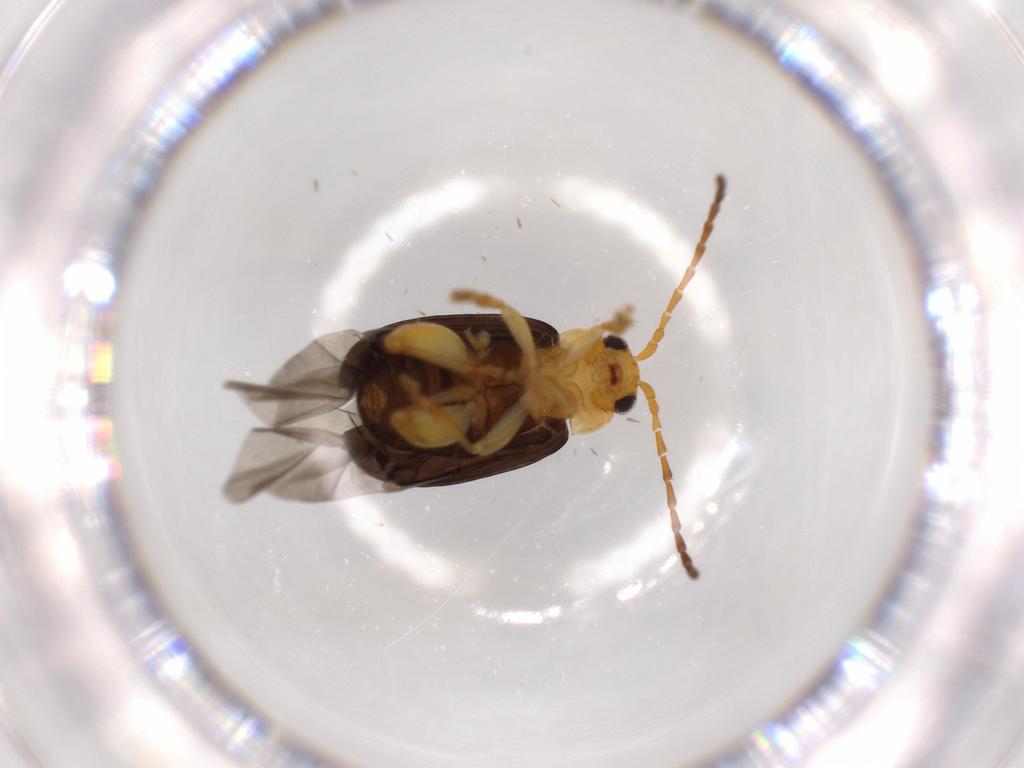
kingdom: Animalia
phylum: Arthropoda
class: Insecta
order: Coleoptera
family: Chrysomelidae
